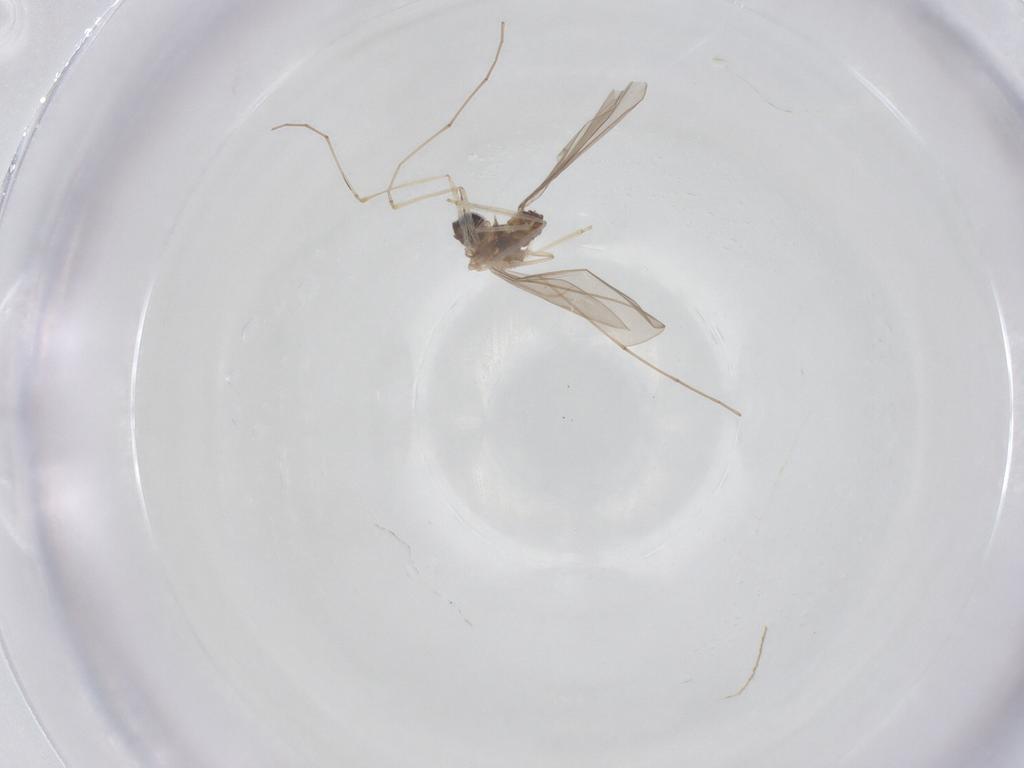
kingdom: Animalia
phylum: Arthropoda
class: Insecta
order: Diptera
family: Cecidomyiidae
